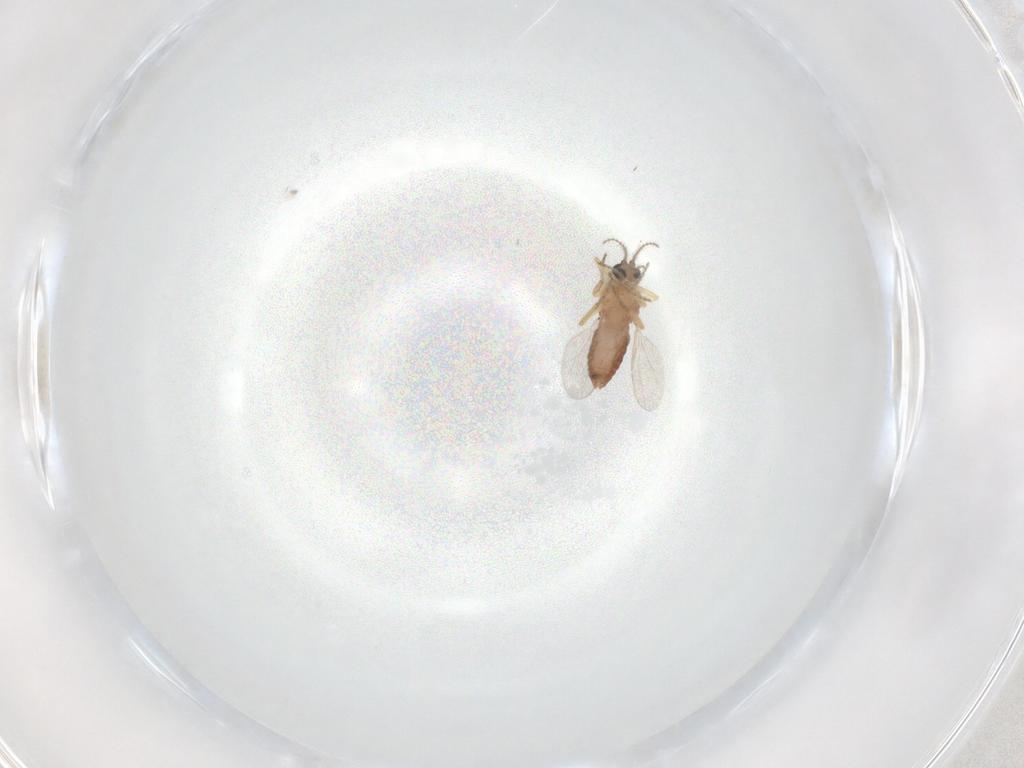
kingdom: Animalia
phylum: Arthropoda
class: Insecta
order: Diptera
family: Ceratopogonidae
